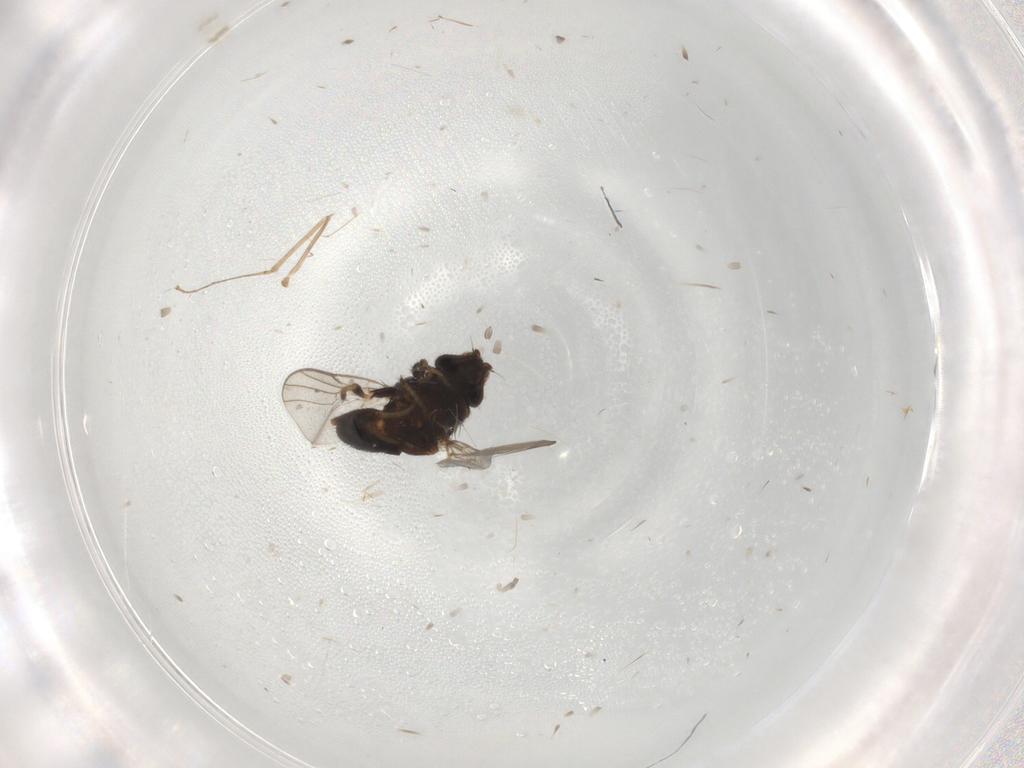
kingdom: Animalia
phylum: Arthropoda
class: Insecta
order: Diptera
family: Chloropidae
